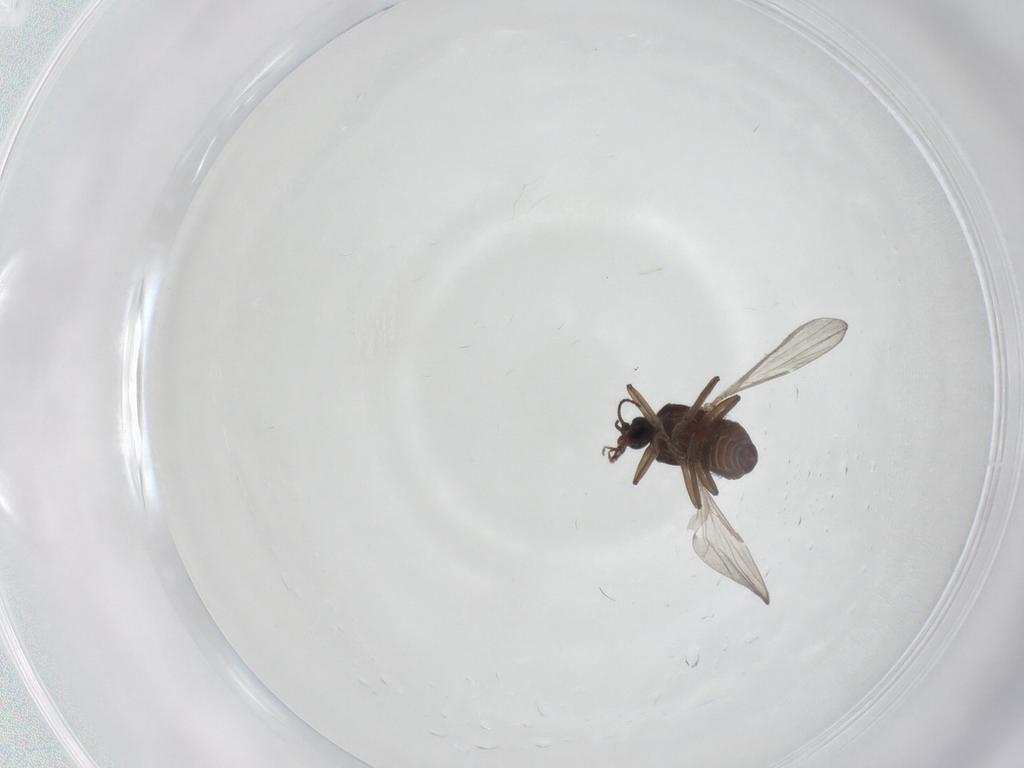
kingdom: Animalia
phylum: Arthropoda
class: Insecta
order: Diptera
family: Ceratopogonidae
